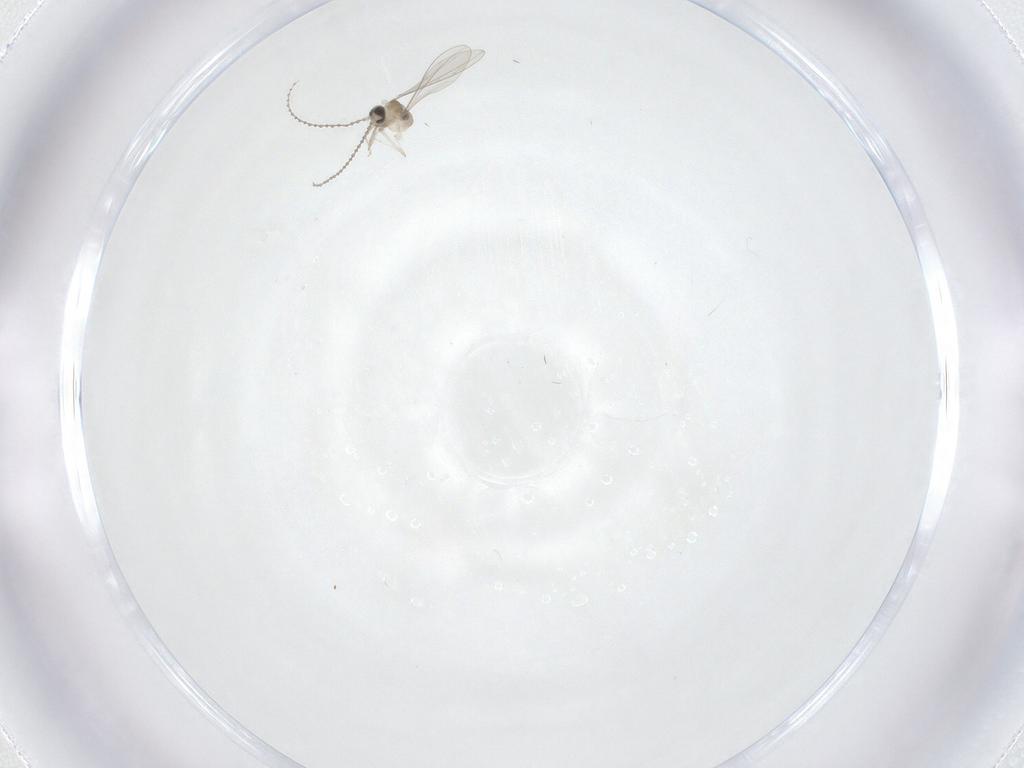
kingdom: Animalia
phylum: Arthropoda
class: Insecta
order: Diptera
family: Cecidomyiidae
